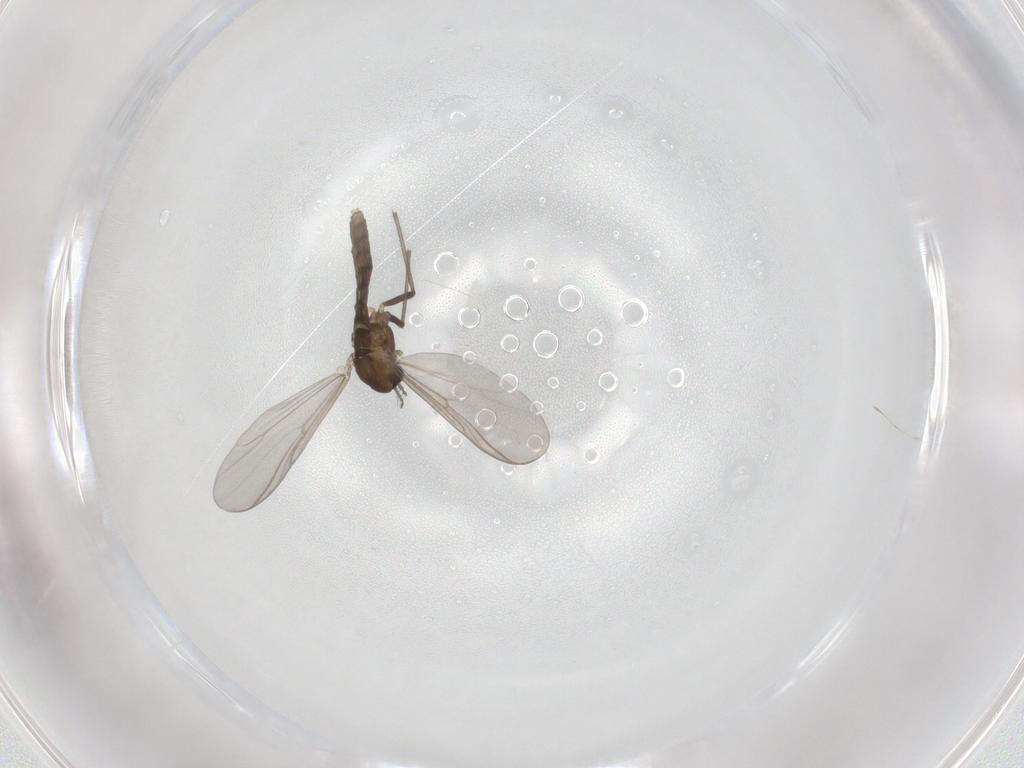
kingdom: Animalia
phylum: Arthropoda
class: Insecta
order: Diptera
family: Chironomidae
